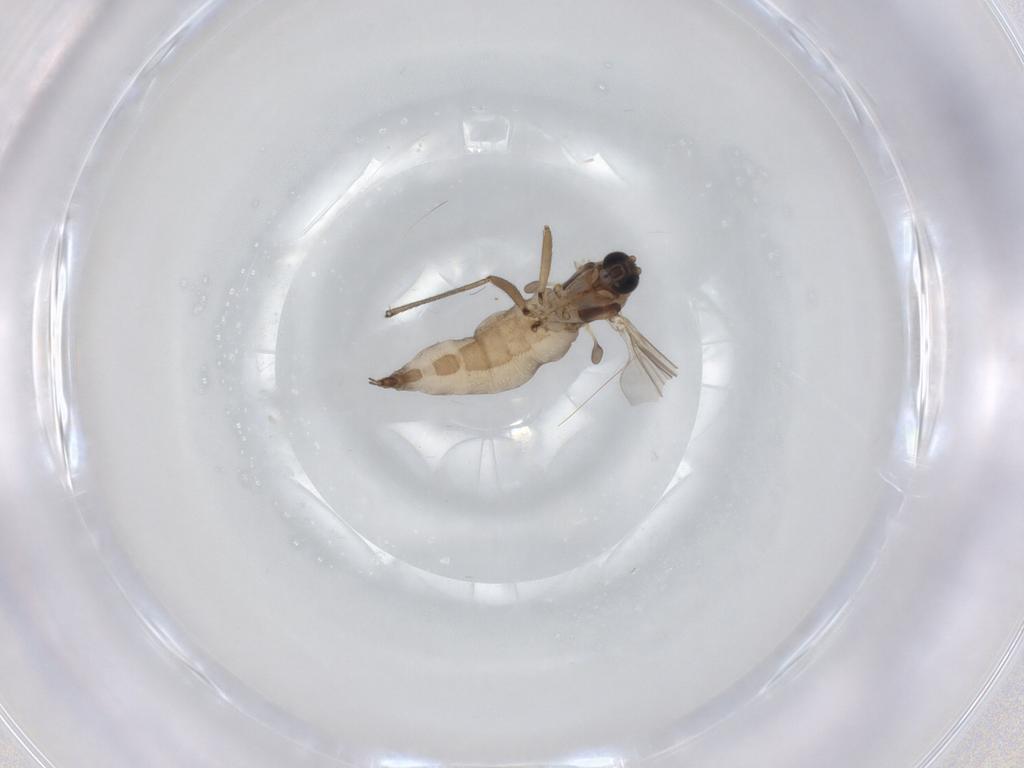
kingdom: Animalia
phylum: Arthropoda
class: Insecta
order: Diptera
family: Sciaridae
